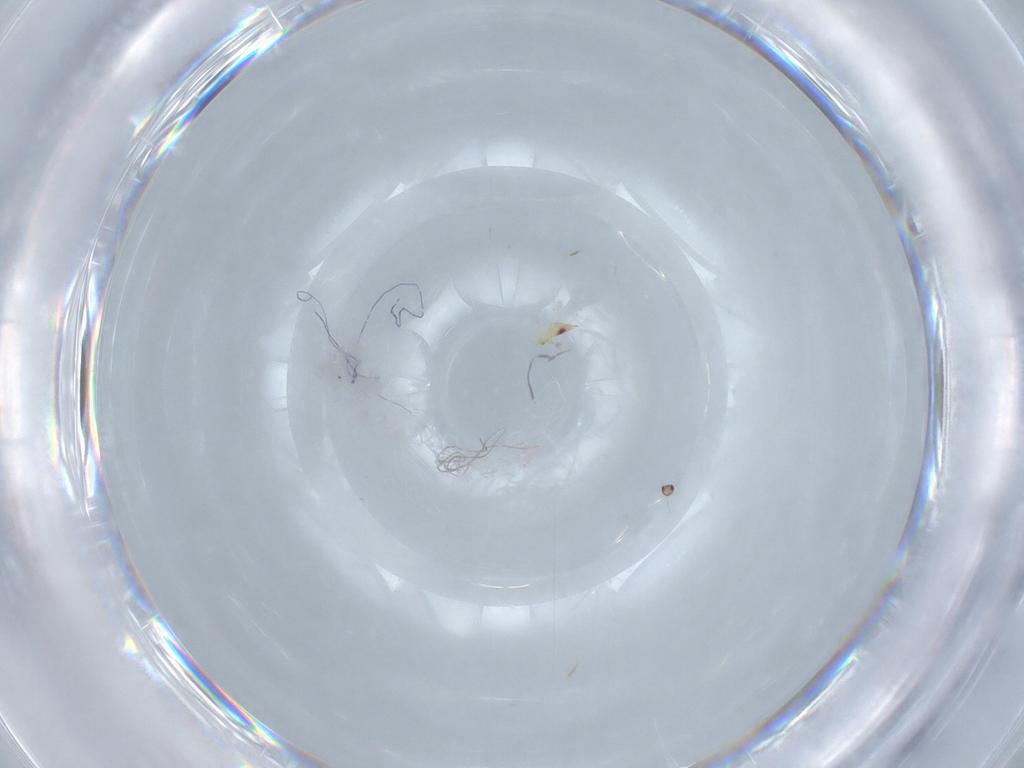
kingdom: Animalia
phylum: Arthropoda
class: Insecta
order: Hymenoptera
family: Mymaridae
